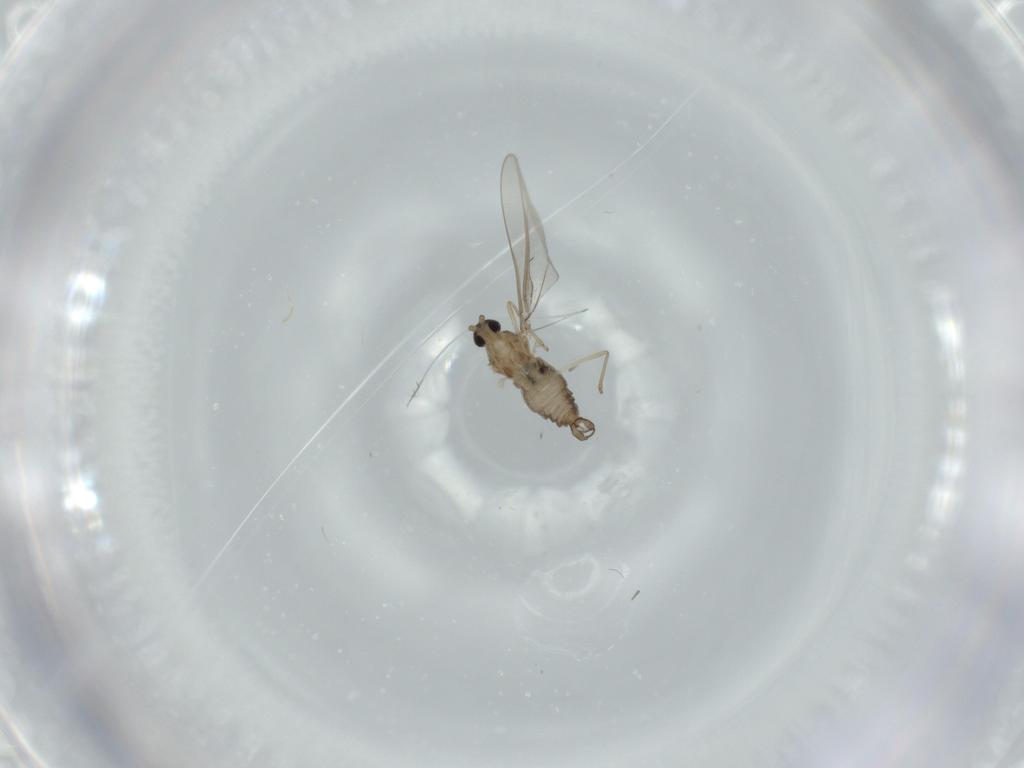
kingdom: Animalia
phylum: Arthropoda
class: Insecta
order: Diptera
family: Cecidomyiidae
